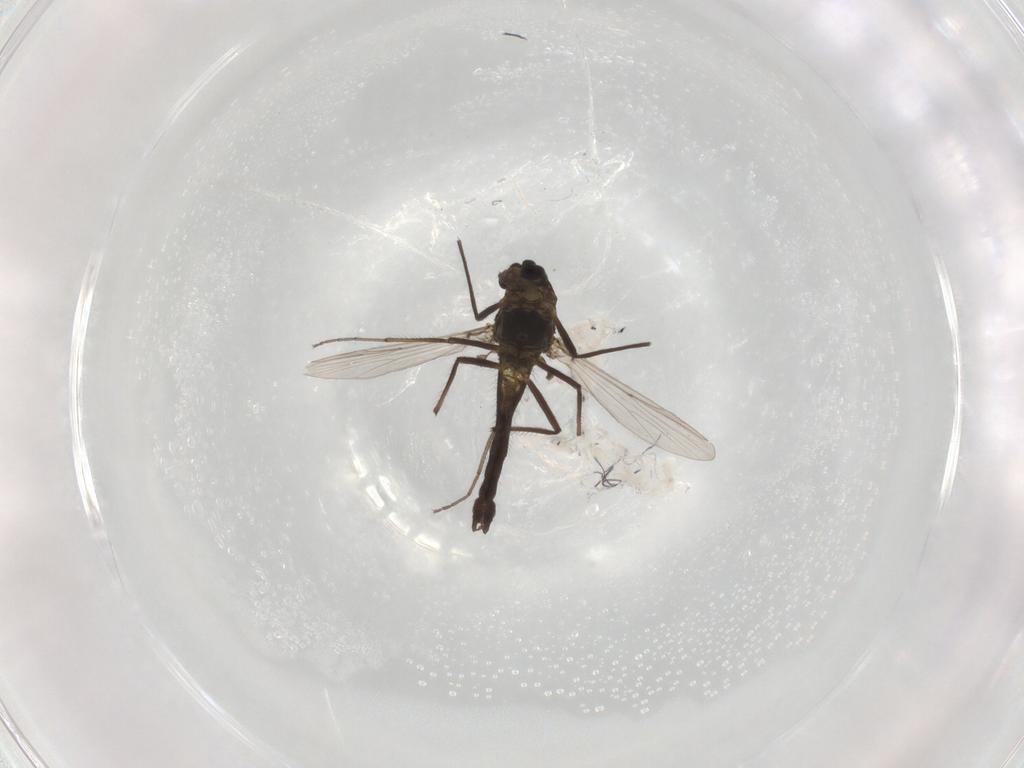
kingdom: Animalia
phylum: Arthropoda
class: Insecta
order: Diptera
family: Chironomidae
